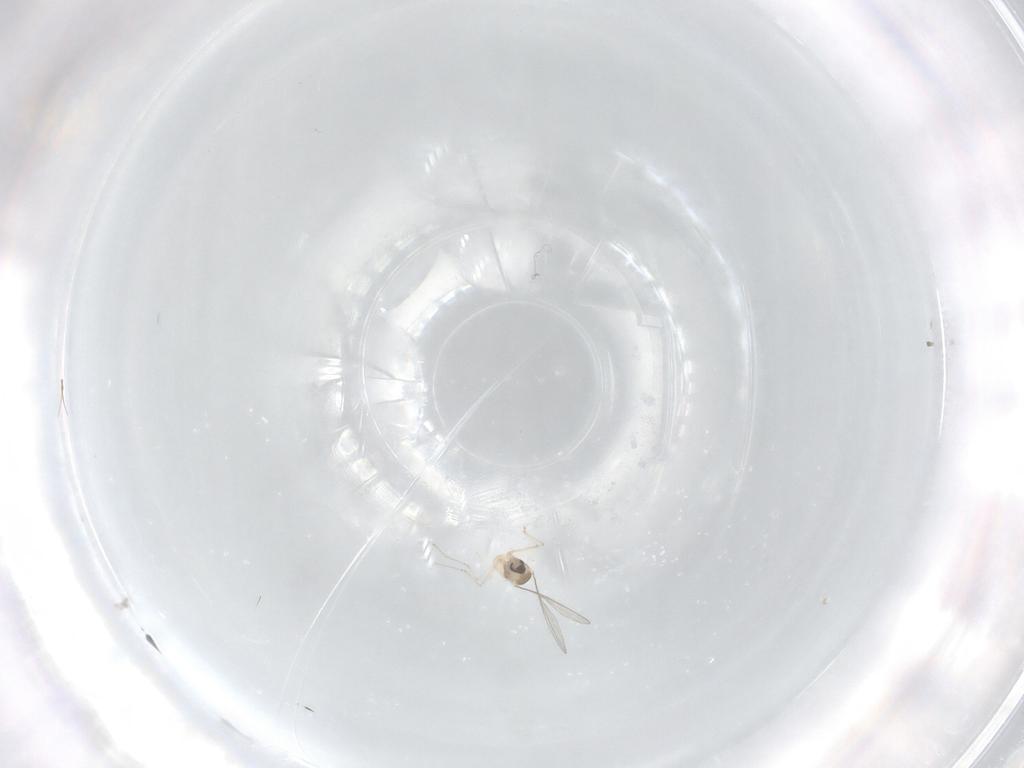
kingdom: Animalia
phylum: Arthropoda
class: Insecta
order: Diptera
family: Cecidomyiidae
